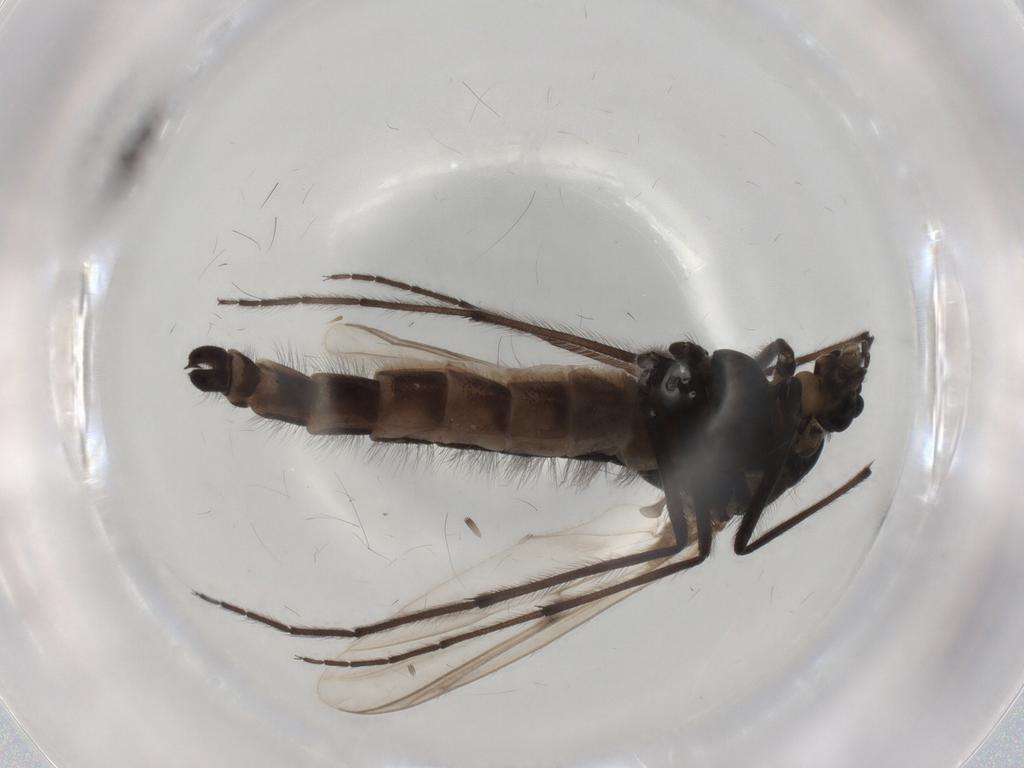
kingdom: Animalia
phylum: Arthropoda
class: Insecta
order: Diptera
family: Chironomidae
